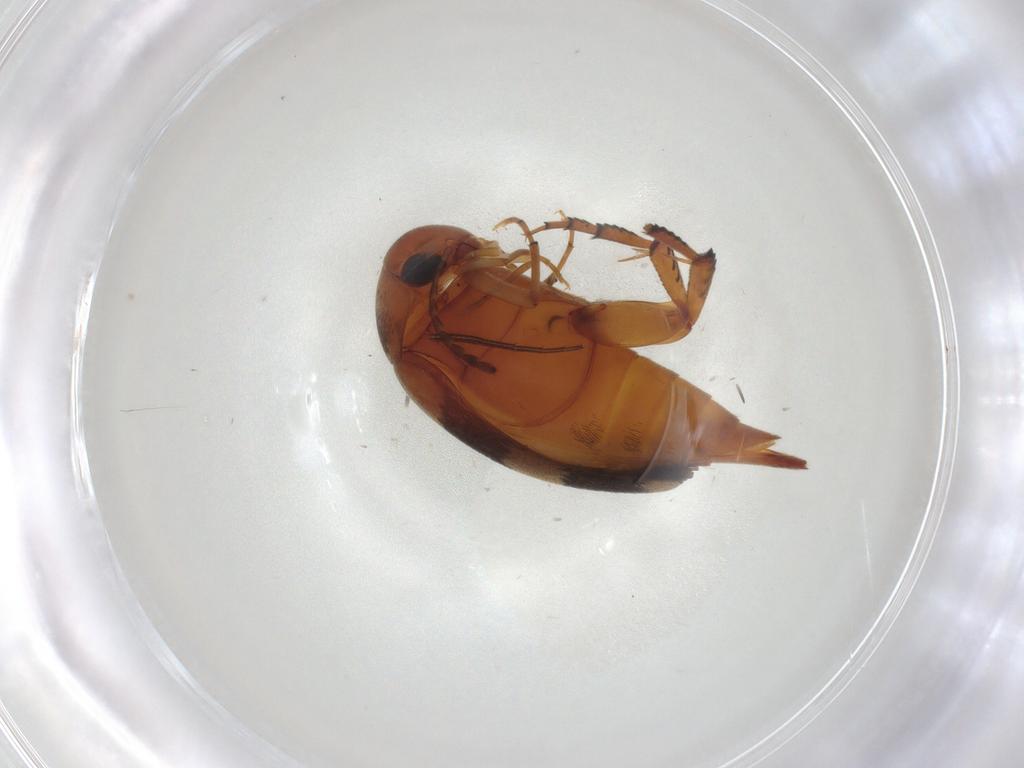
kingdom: Animalia
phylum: Arthropoda
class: Insecta
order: Coleoptera
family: Mordellidae
